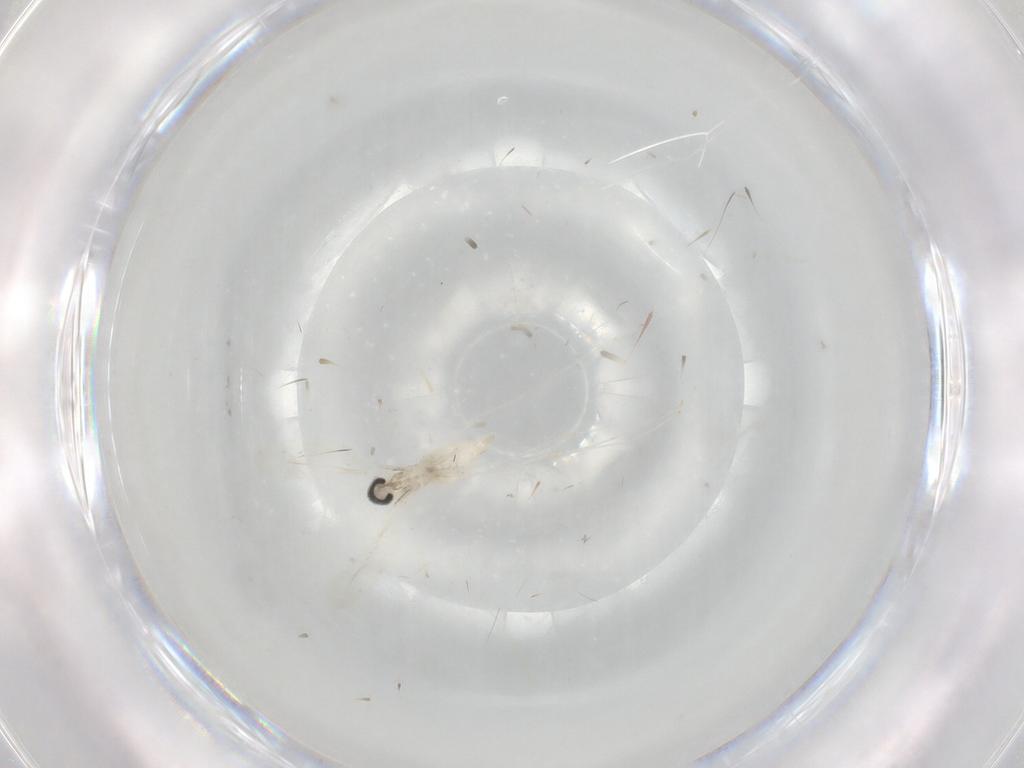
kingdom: Animalia
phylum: Arthropoda
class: Insecta
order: Diptera
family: Cecidomyiidae
